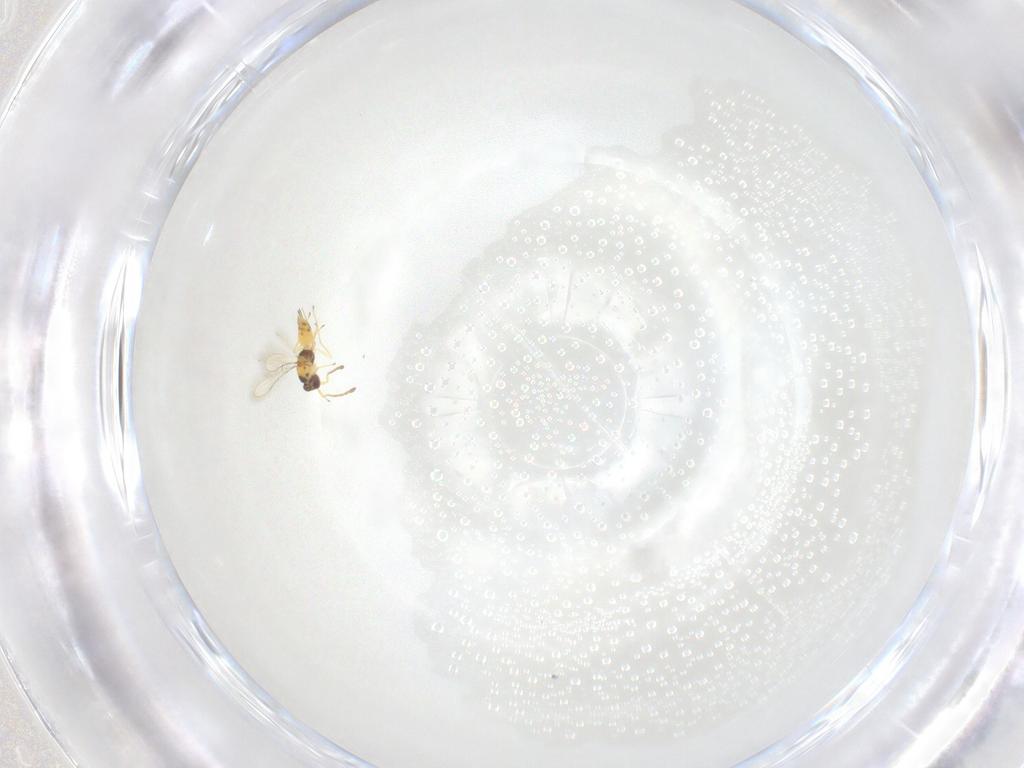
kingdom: Animalia
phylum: Arthropoda
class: Insecta
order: Hymenoptera
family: Mymaridae
